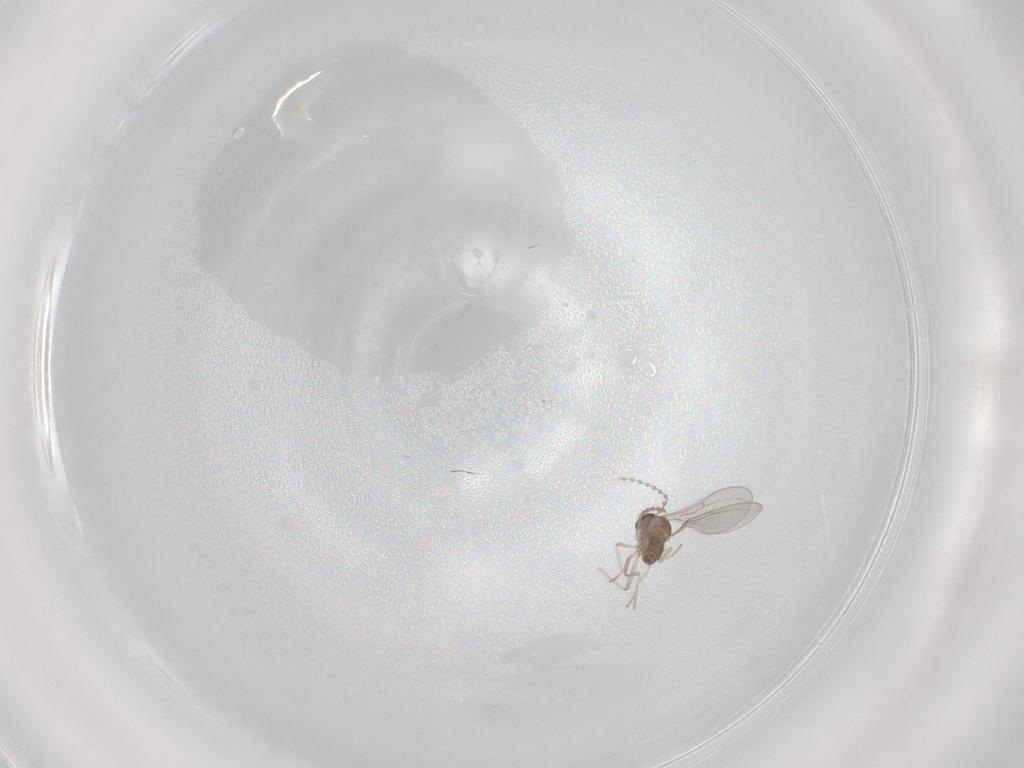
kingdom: Animalia
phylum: Arthropoda
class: Insecta
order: Diptera
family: Cecidomyiidae
